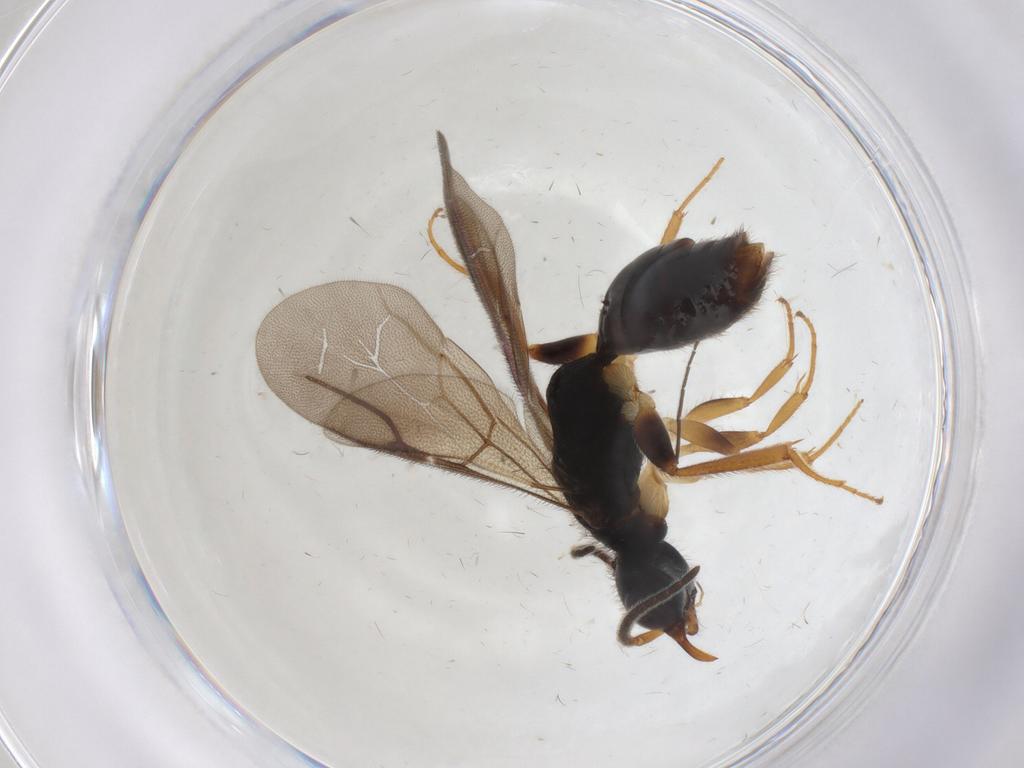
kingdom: Animalia
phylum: Arthropoda
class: Insecta
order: Hymenoptera
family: Bethylidae
